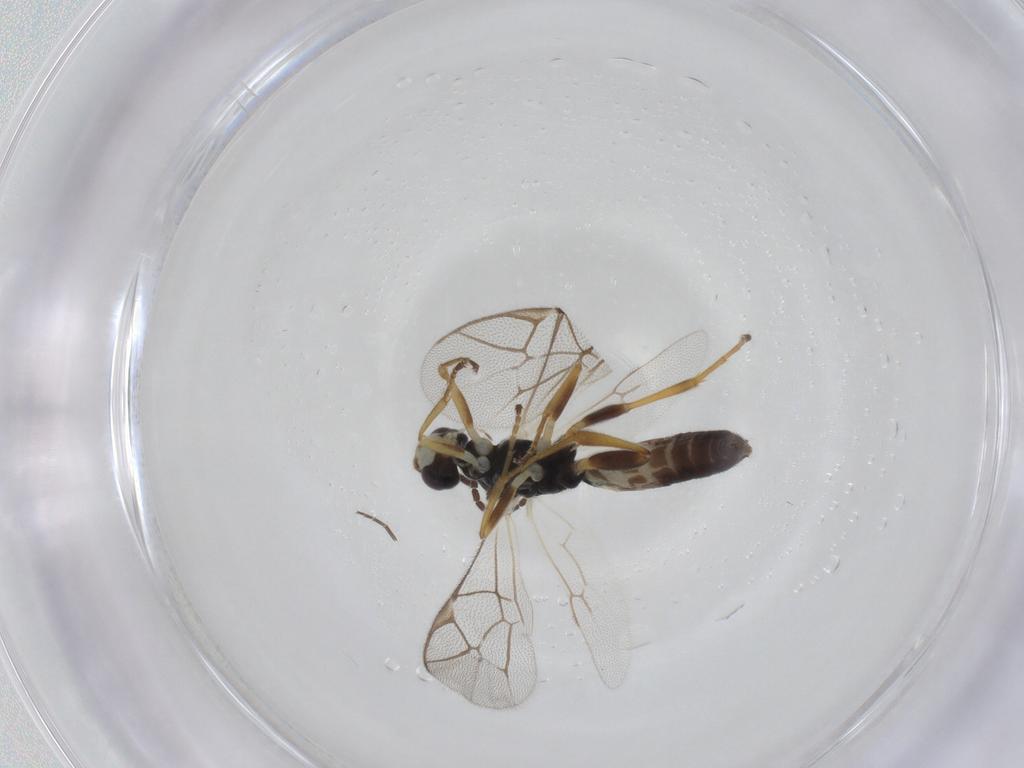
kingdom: Animalia
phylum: Arthropoda
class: Insecta
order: Hymenoptera
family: Ichneumonidae
